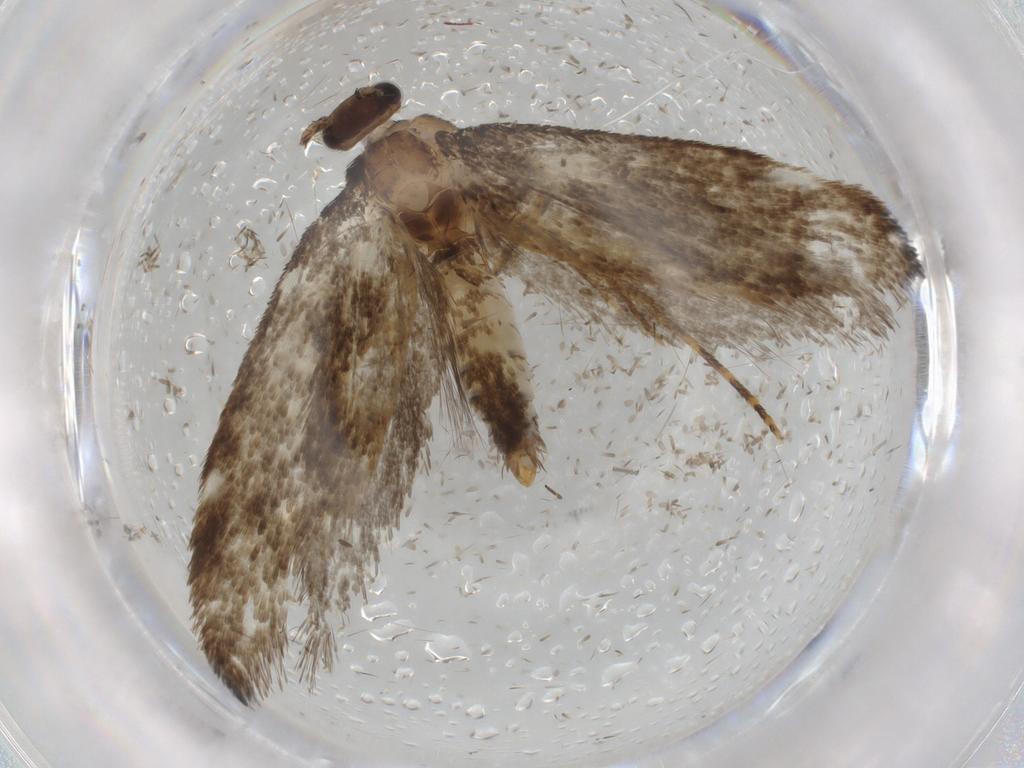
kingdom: Animalia
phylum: Arthropoda
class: Insecta
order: Lepidoptera
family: Crambidae
